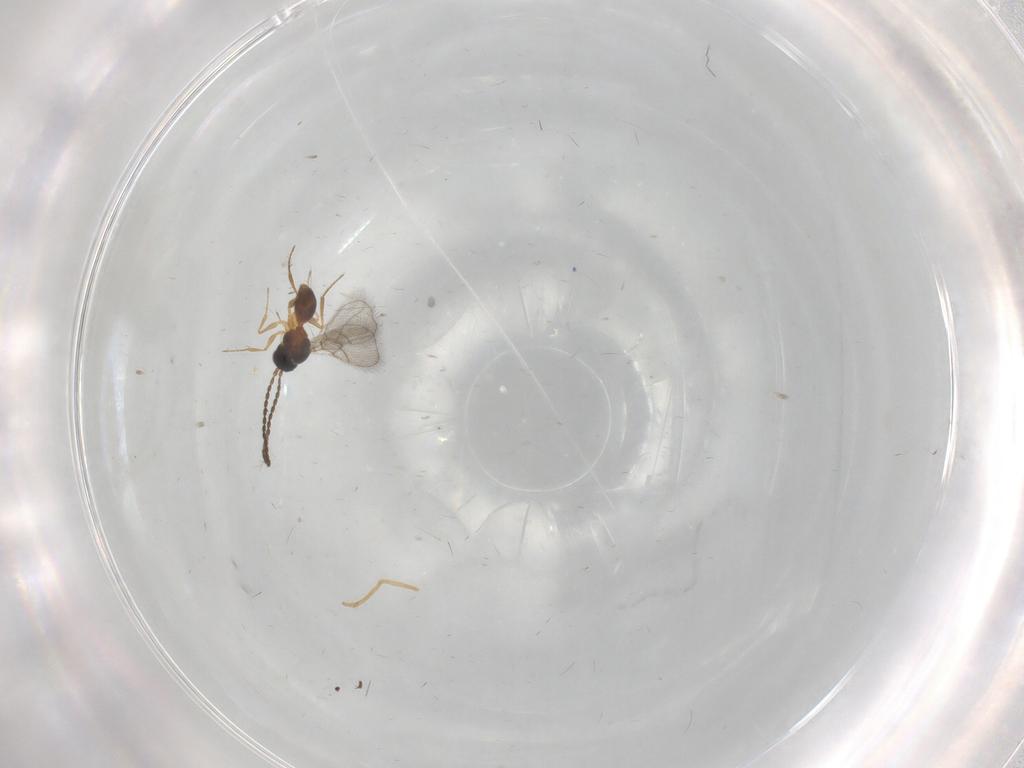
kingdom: Animalia
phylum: Arthropoda
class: Insecta
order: Hymenoptera
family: Figitidae
